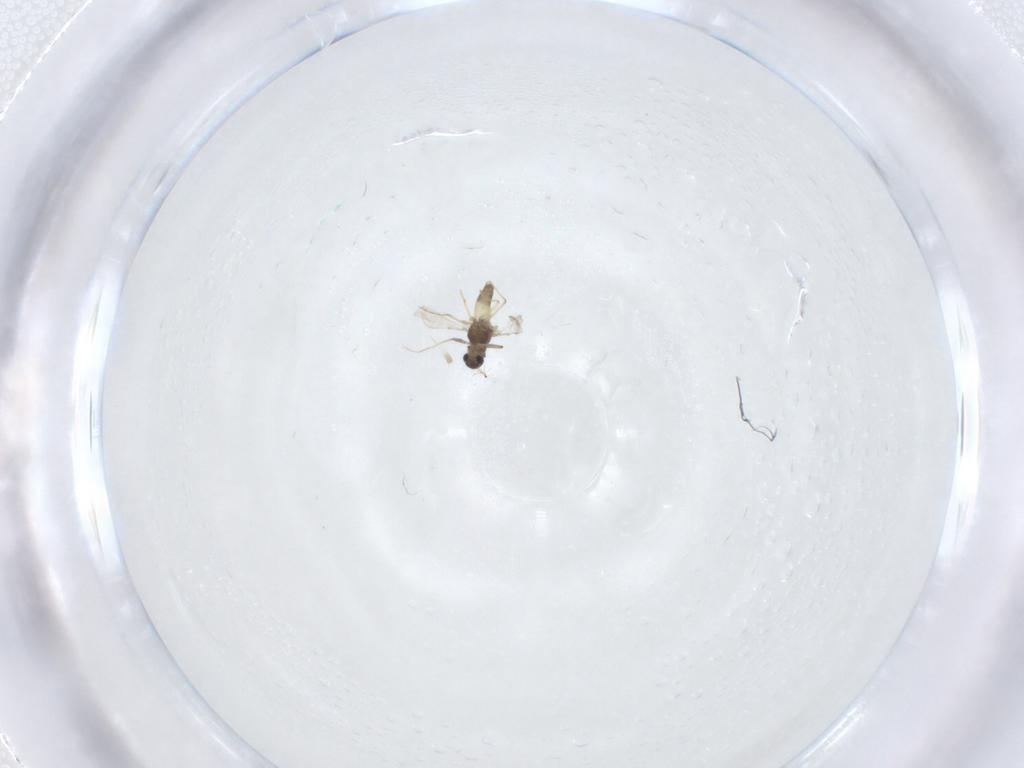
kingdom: Animalia
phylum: Arthropoda
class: Insecta
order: Diptera
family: Chironomidae
